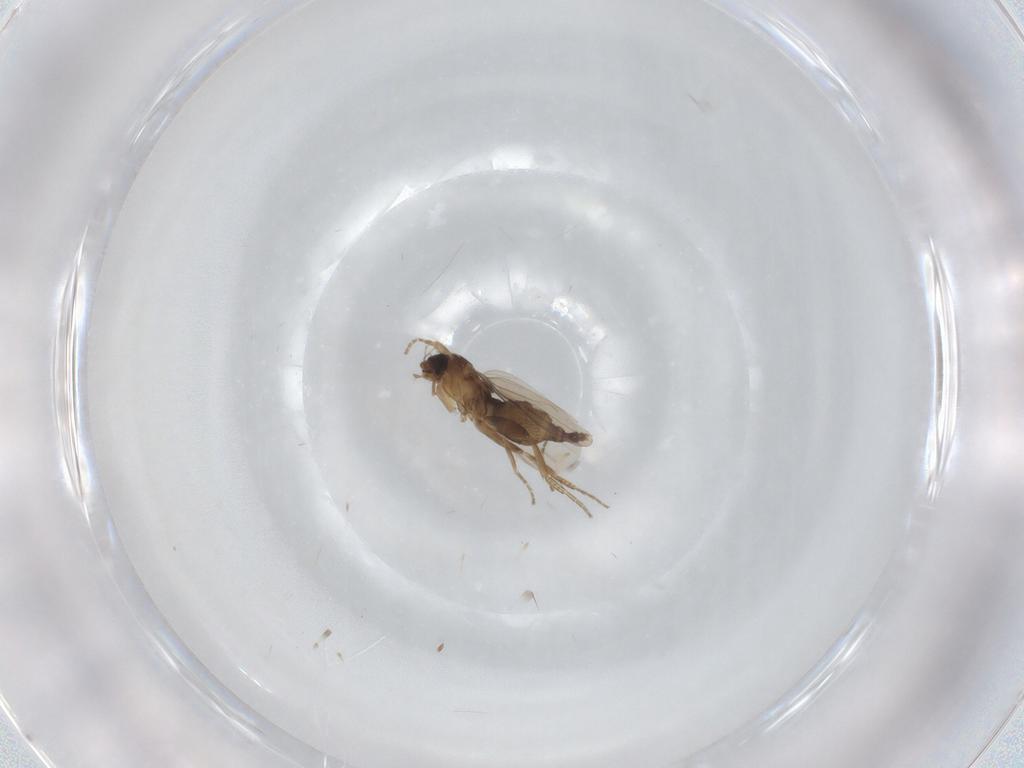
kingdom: Animalia
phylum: Arthropoda
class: Insecta
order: Diptera
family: Phoridae
